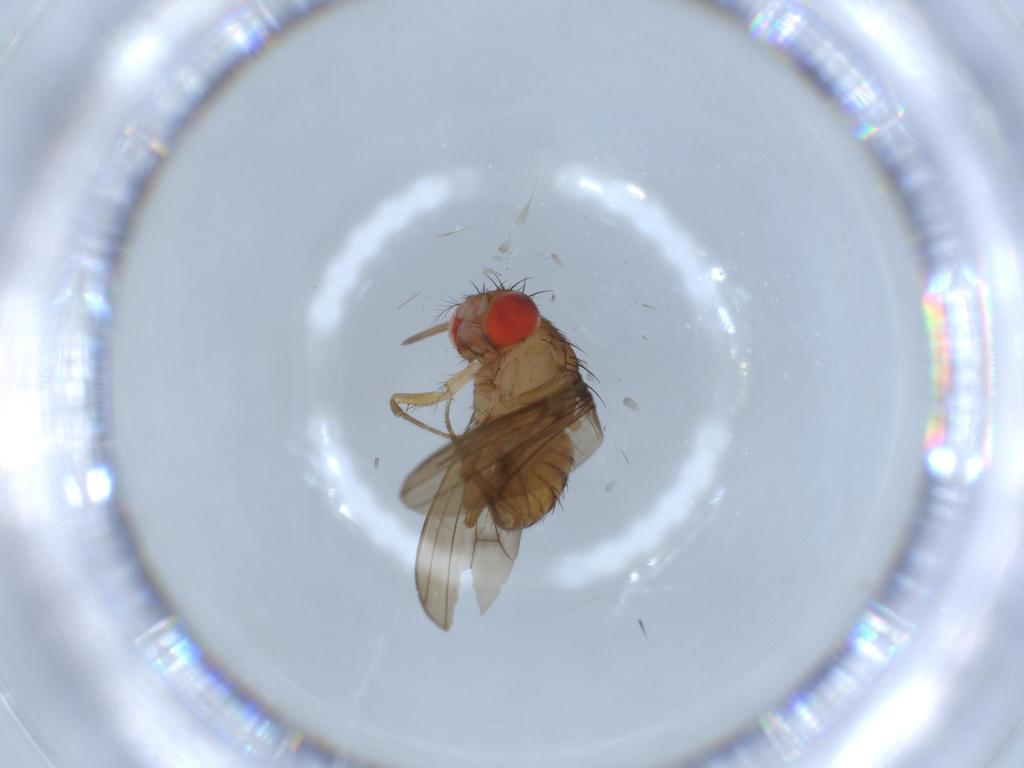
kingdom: Animalia
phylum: Arthropoda
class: Insecta
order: Diptera
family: Drosophilidae
